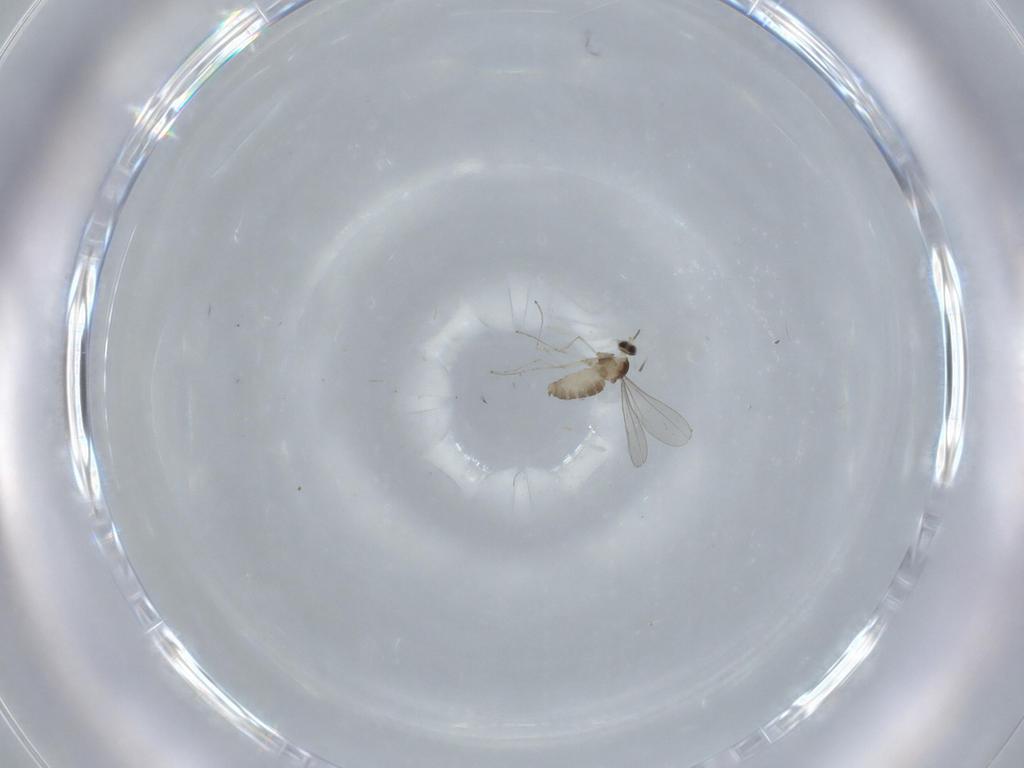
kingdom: Animalia
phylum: Arthropoda
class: Insecta
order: Diptera
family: Cecidomyiidae
